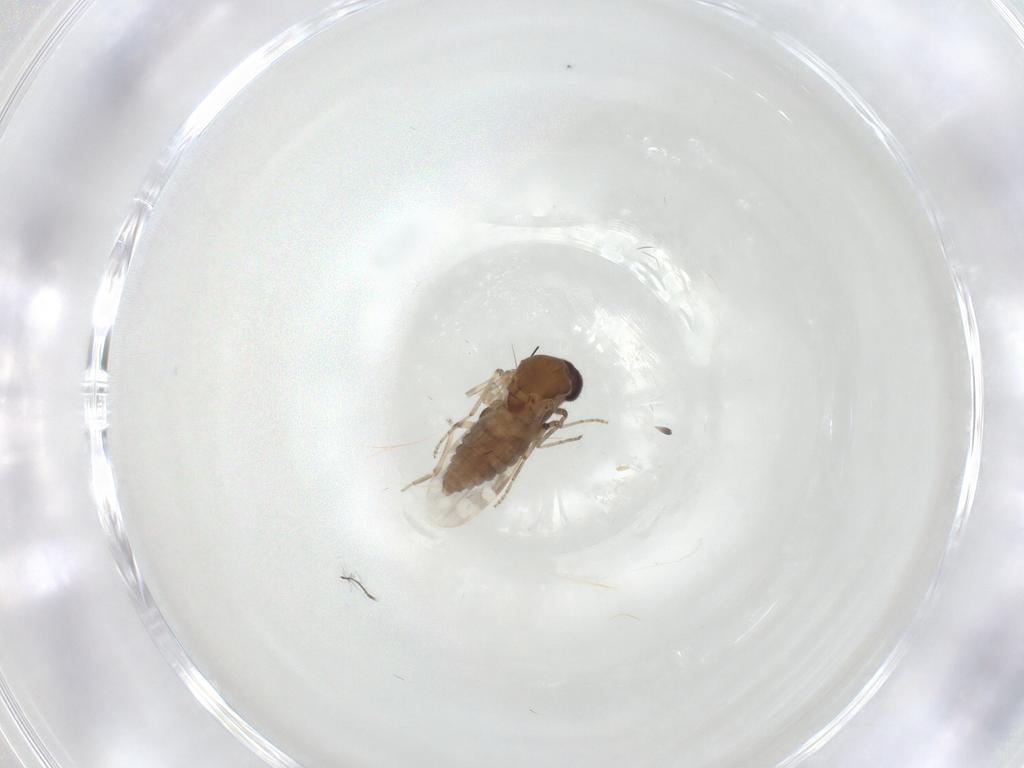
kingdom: Animalia
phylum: Arthropoda
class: Insecta
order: Diptera
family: Chironomidae
